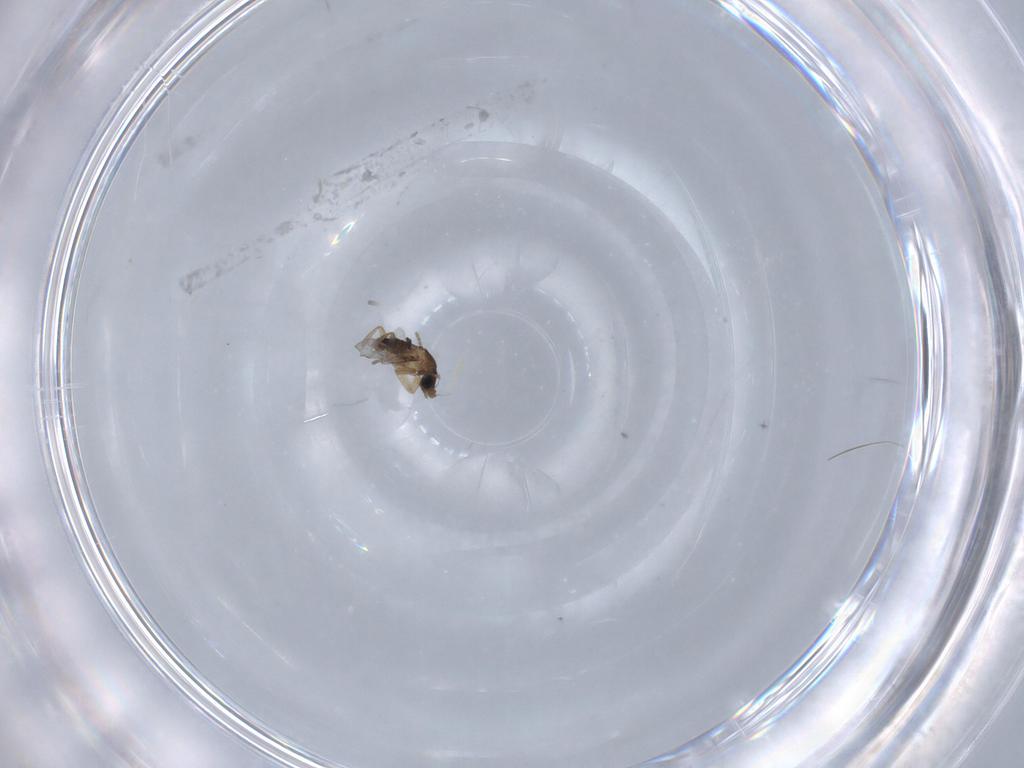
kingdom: Animalia
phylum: Arthropoda
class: Insecta
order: Diptera
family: Phoridae
